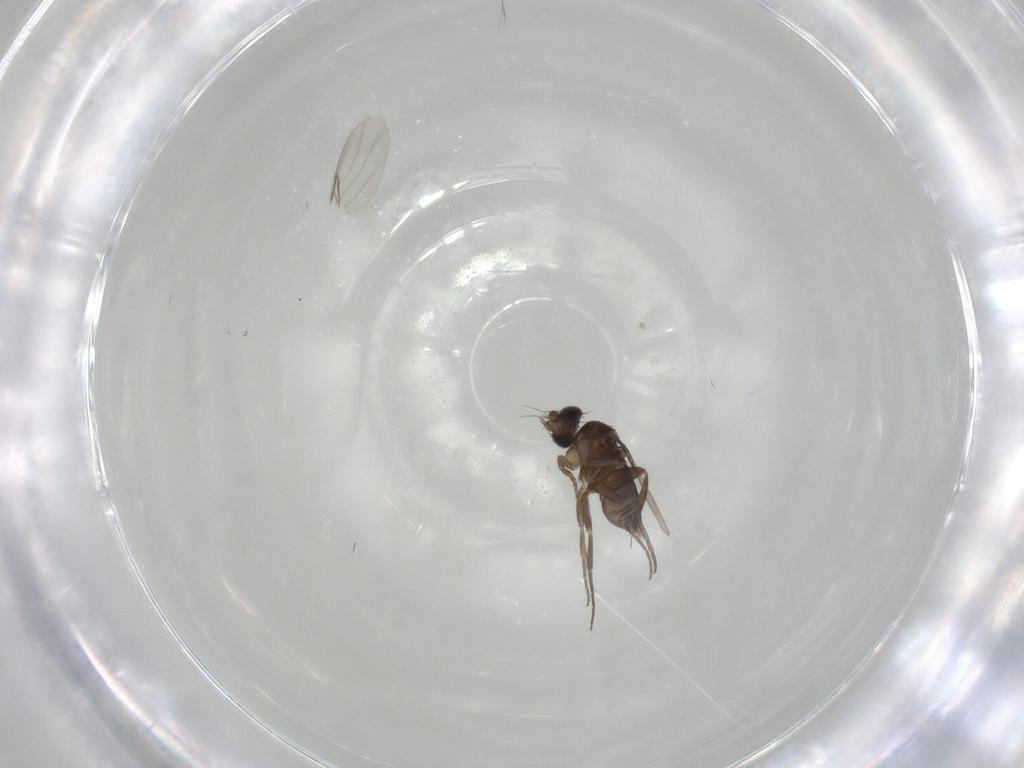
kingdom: Animalia
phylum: Arthropoda
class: Insecta
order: Diptera
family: Phoridae
